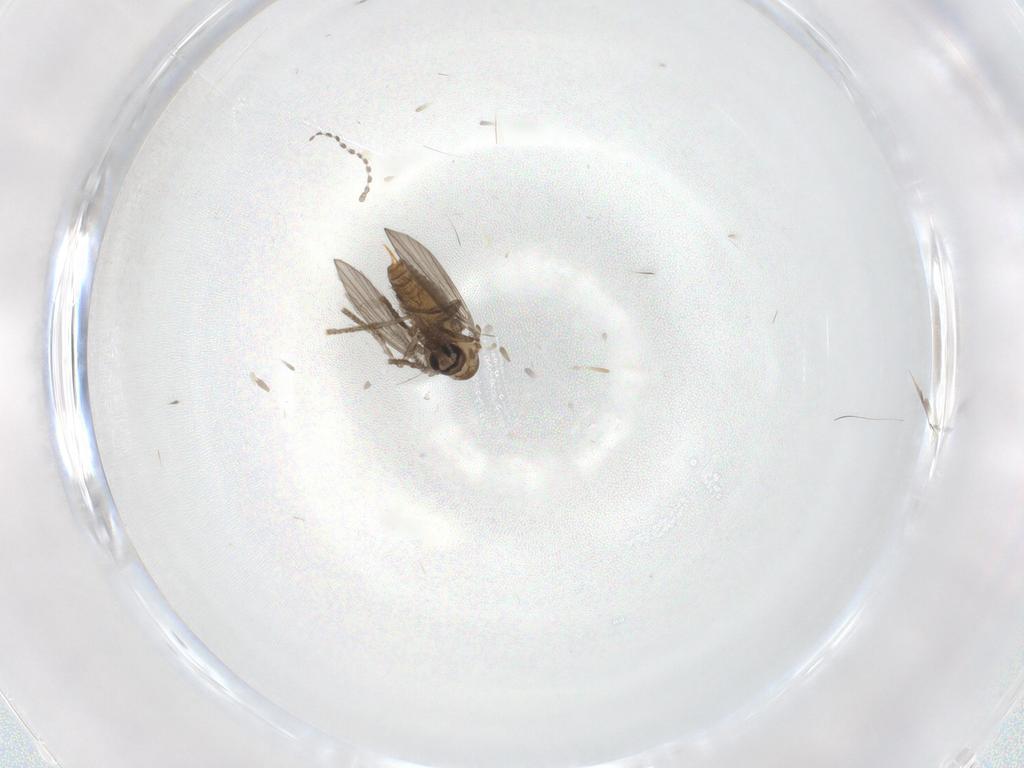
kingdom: Animalia
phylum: Arthropoda
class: Insecta
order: Diptera
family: Psychodidae
